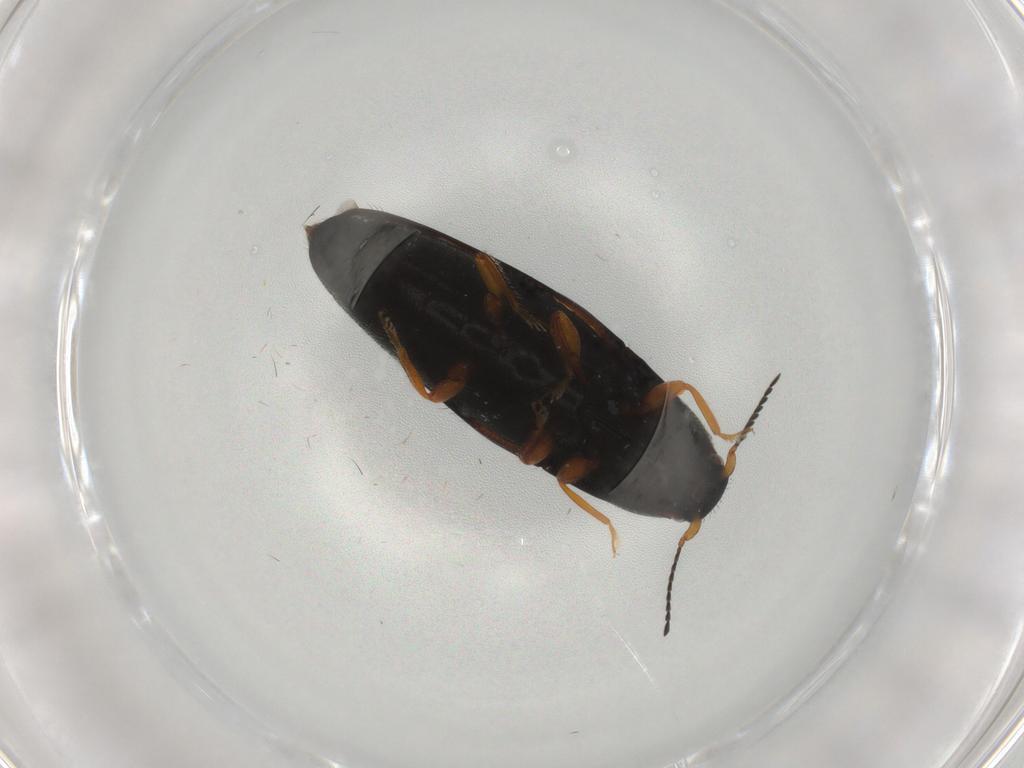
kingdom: Animalia
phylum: Arthropoda
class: Insecta
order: Coleoptera
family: Elateridae
